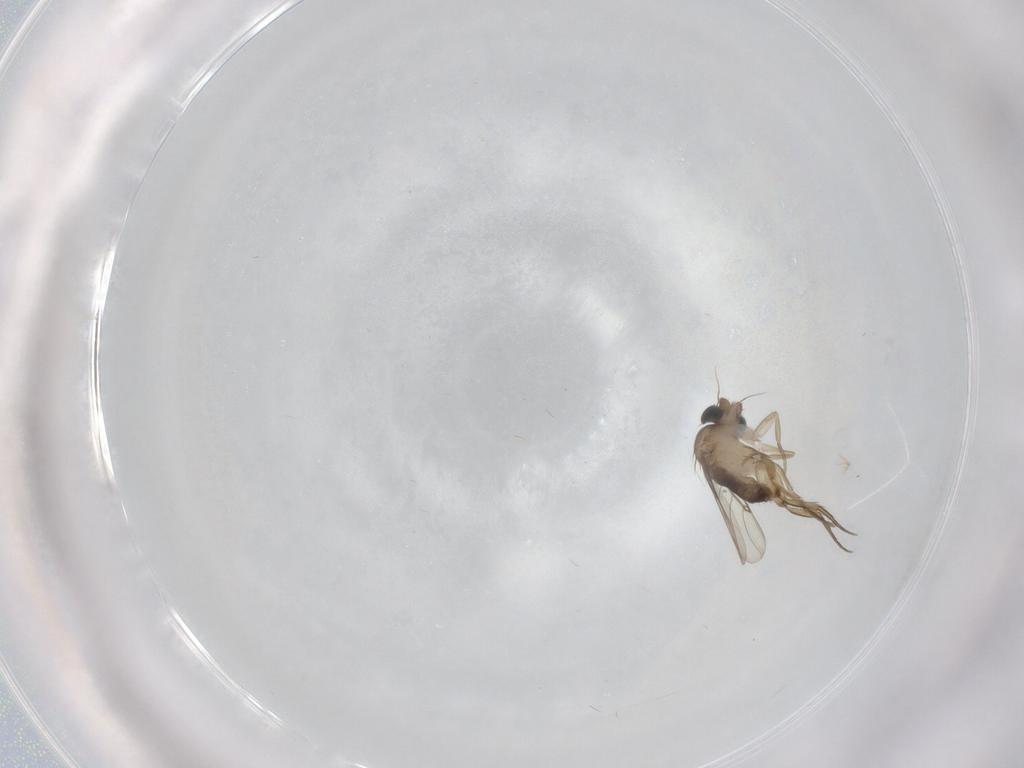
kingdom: Animalia
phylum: Arthropoda
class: Insecta
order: Diptera
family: Phoridae
